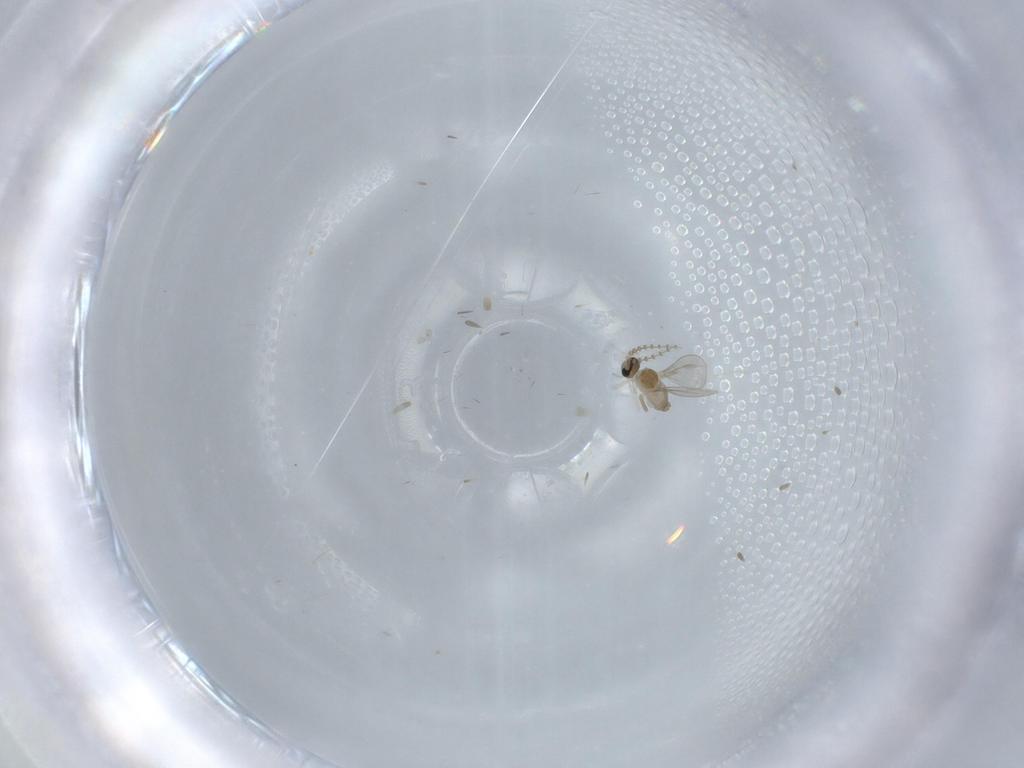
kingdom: Animalia
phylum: Arthropoda
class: Insecta
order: Diptera
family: Cecidomyiidae
